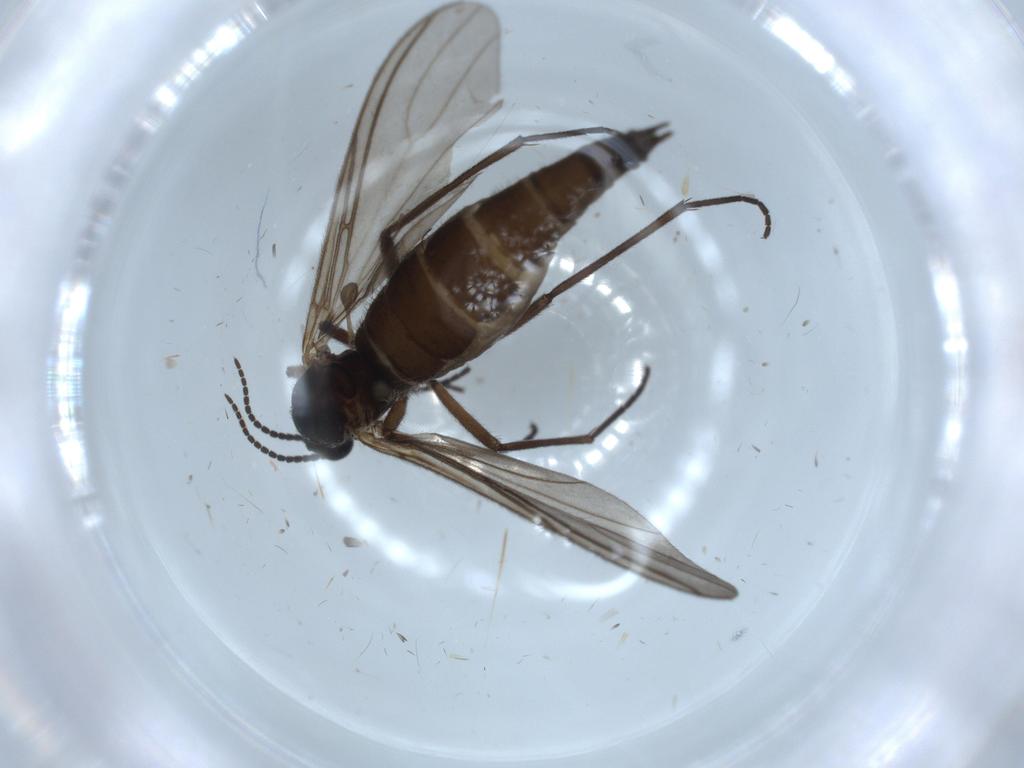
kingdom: Animalia
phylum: Arthropoda
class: Insecta
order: Diptera
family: Sciaridae
